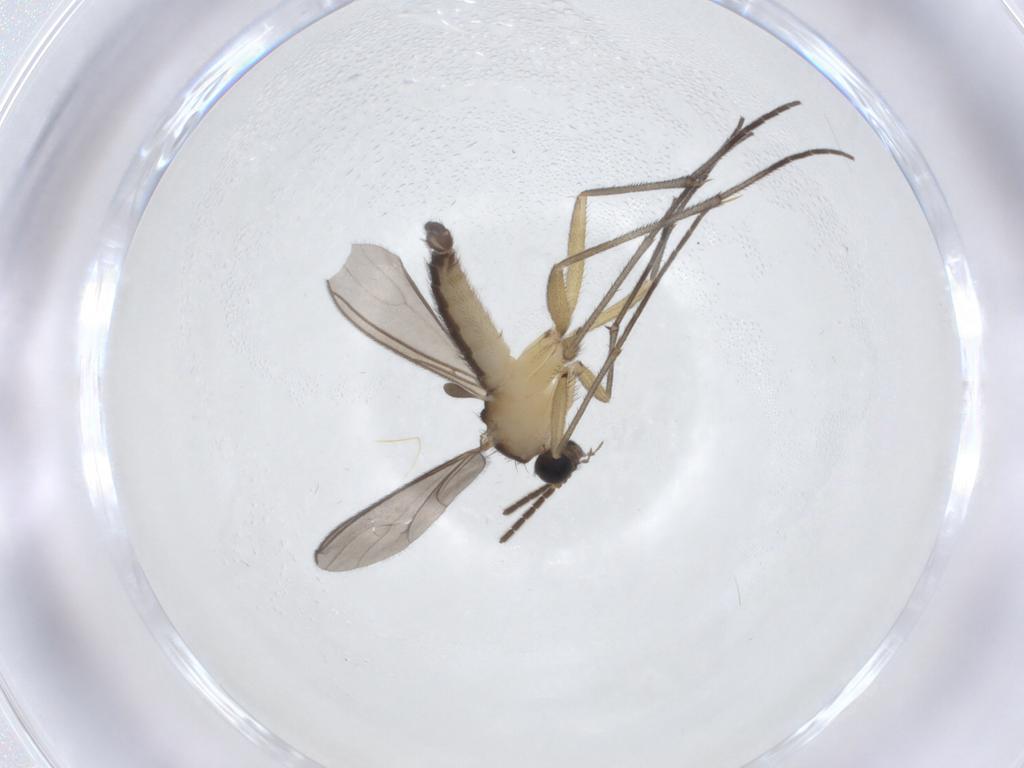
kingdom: Animalia
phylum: Arthropoda
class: Insecta
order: Diptera
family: Sciaridae
